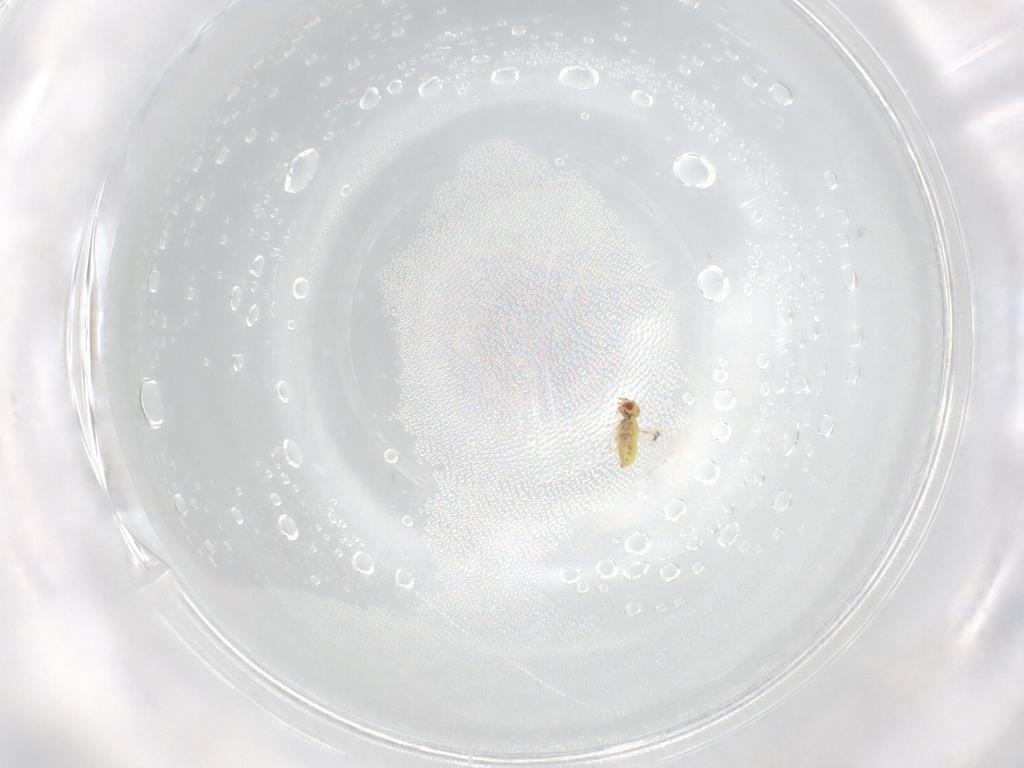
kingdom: Animalia
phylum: Arthropoda
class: Insecta
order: Hymenoptera
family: Trichogrammatidae
